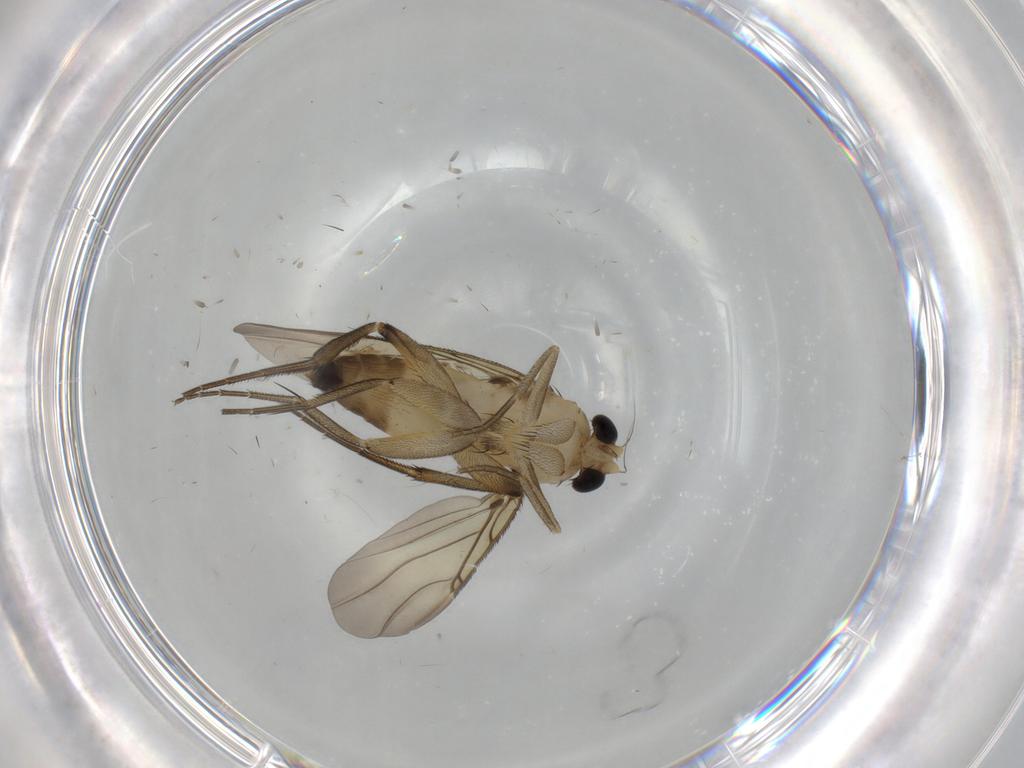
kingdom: Animalia
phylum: Arthropoda
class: Insecta
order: Diptera
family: Phoridae
